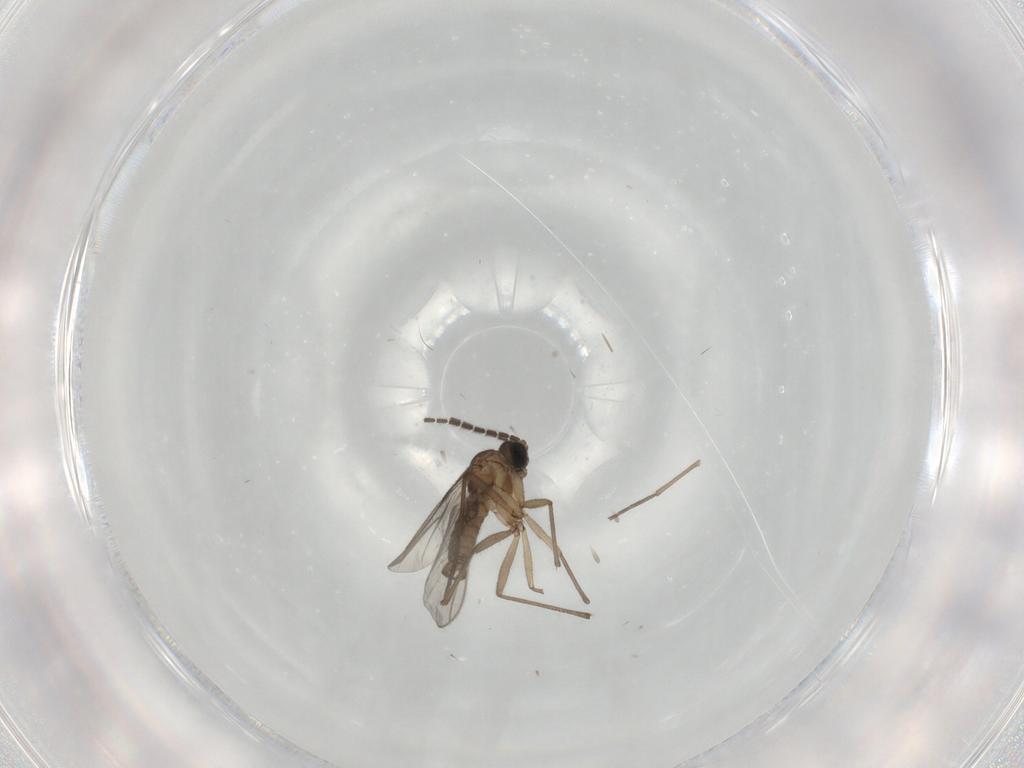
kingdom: Animalia
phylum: Arthropoda
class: Insecta
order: Diptera
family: Sciaridae
